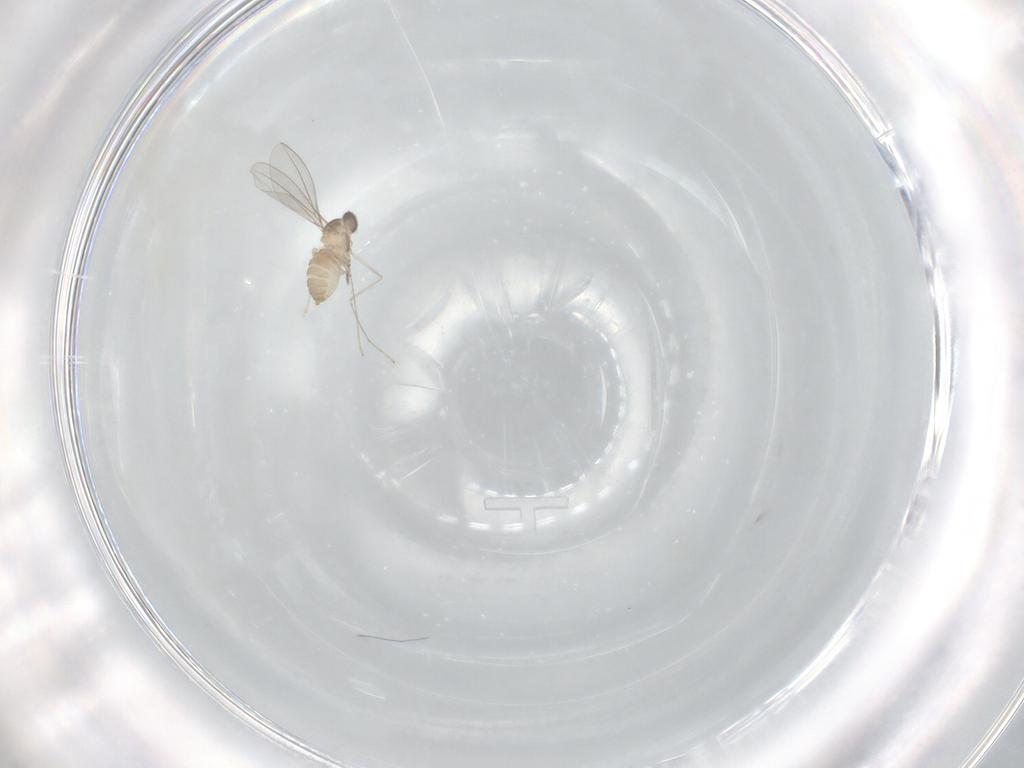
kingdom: Animalia
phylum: Arthropoda
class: Insecta
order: Diptera
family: Cecidomyiidae
